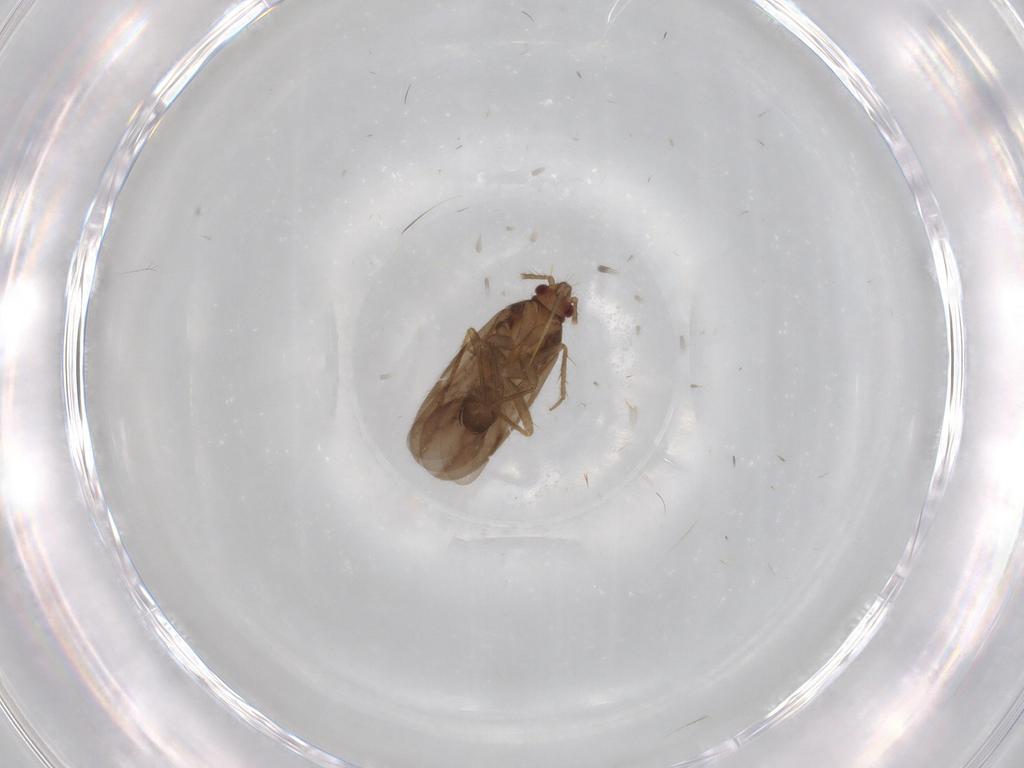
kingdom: Animalia
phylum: Arthropoda
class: Insecta
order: Hemiptera
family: Ceratocombidae
